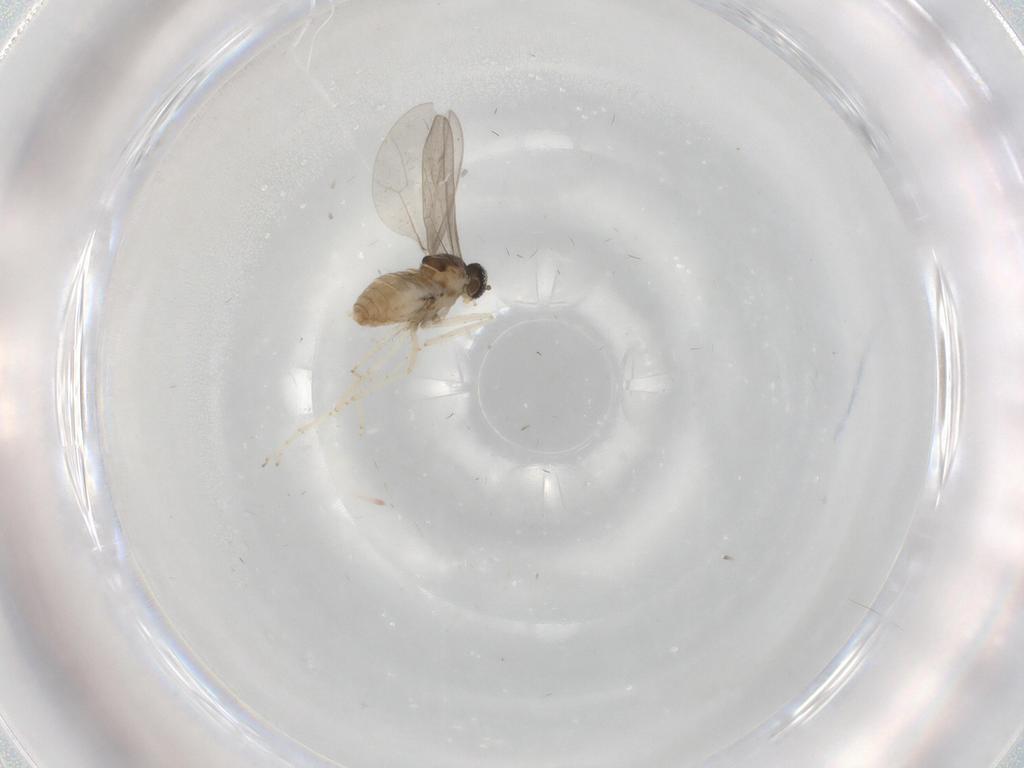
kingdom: Animalia
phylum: Arthropoda
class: Insecta
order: Diptera
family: Cecidomyiidae
